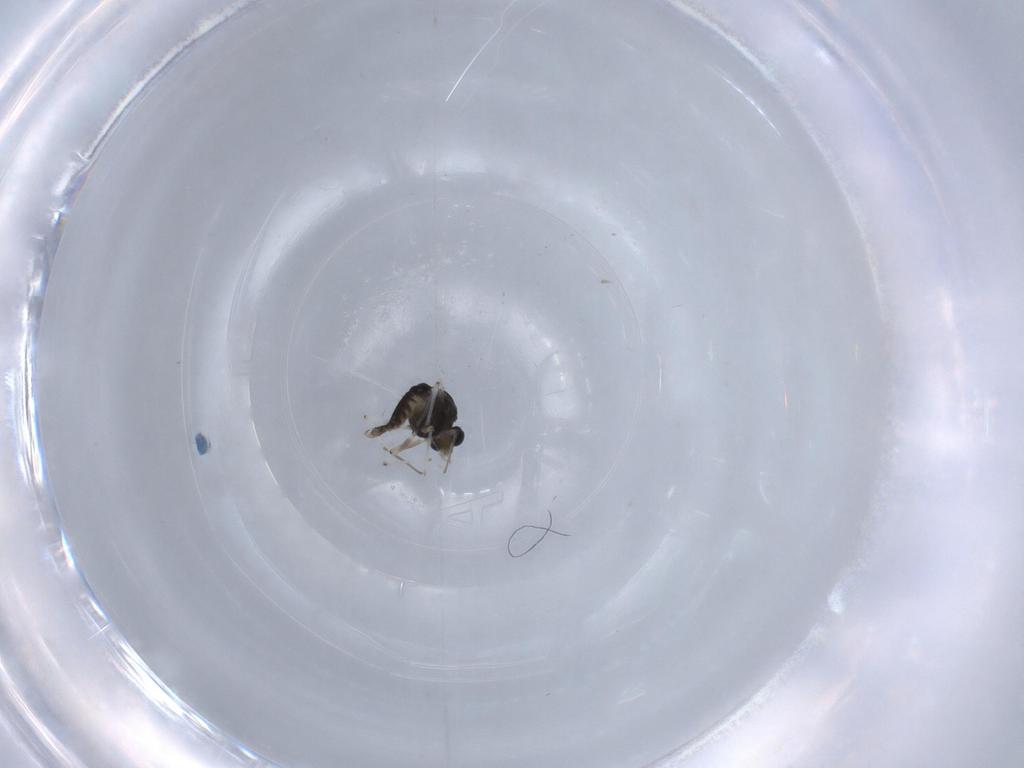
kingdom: Animalia
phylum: Arthropoda
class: Insecta
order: Diptera
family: Chironomidae
